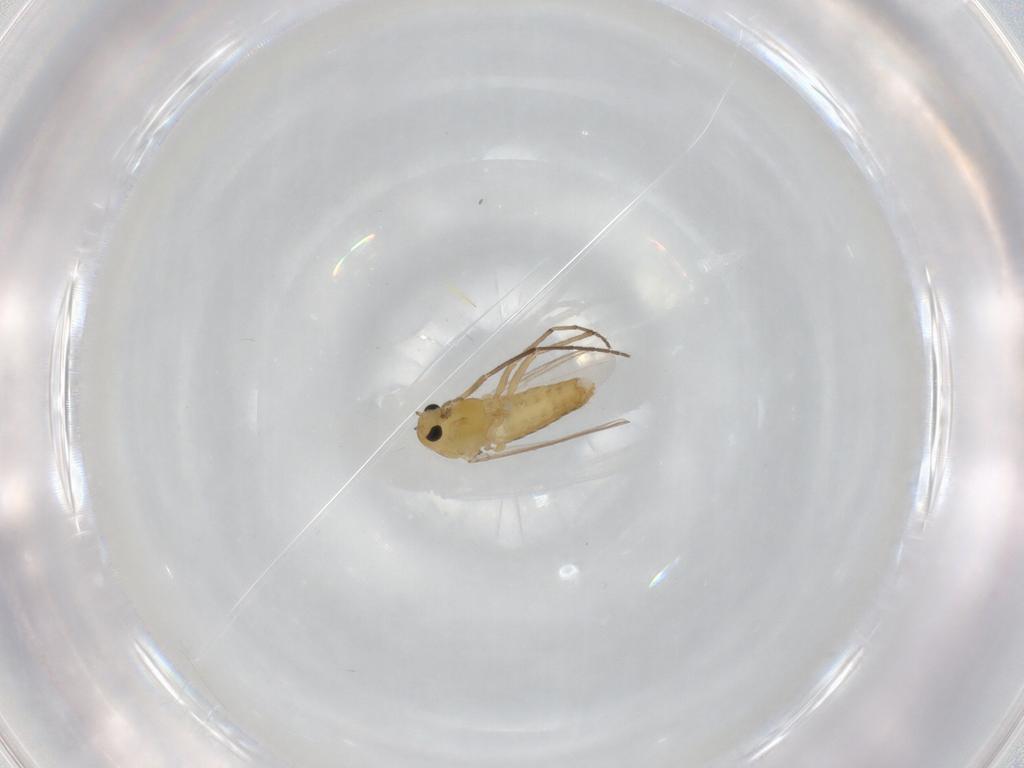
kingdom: Animalia
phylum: Arthropoda
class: Insecta
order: Diptera
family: Chironomidae
